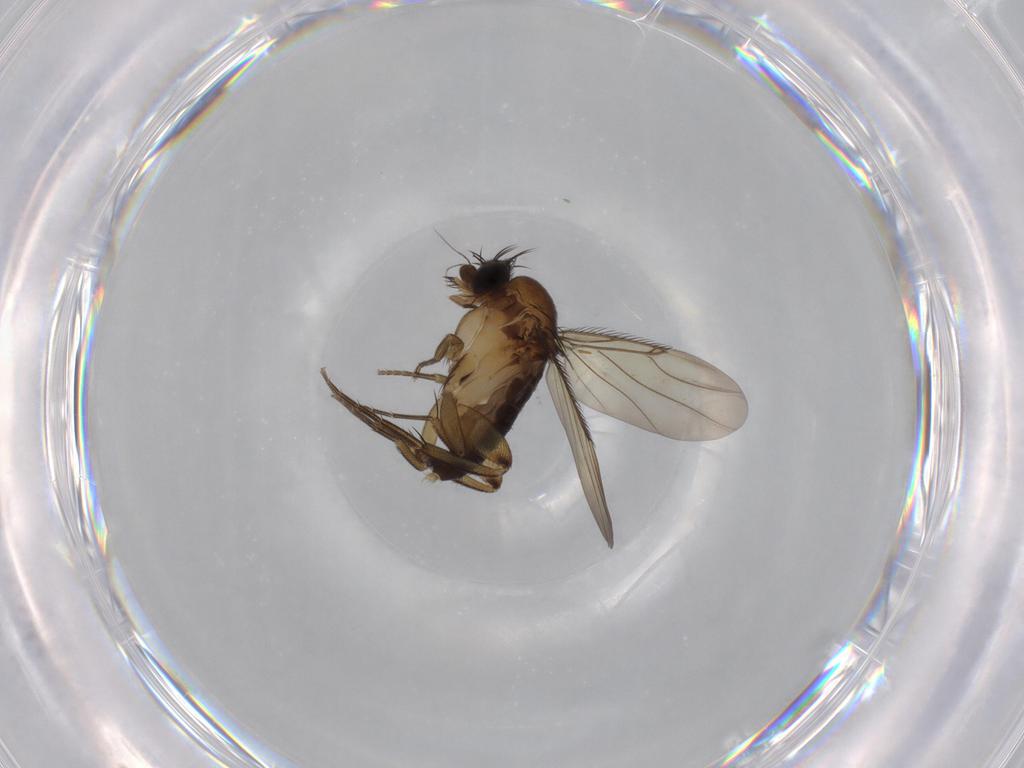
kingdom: Animalia
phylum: Arthropoda
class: Insecta
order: Diptera
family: Phoridae
